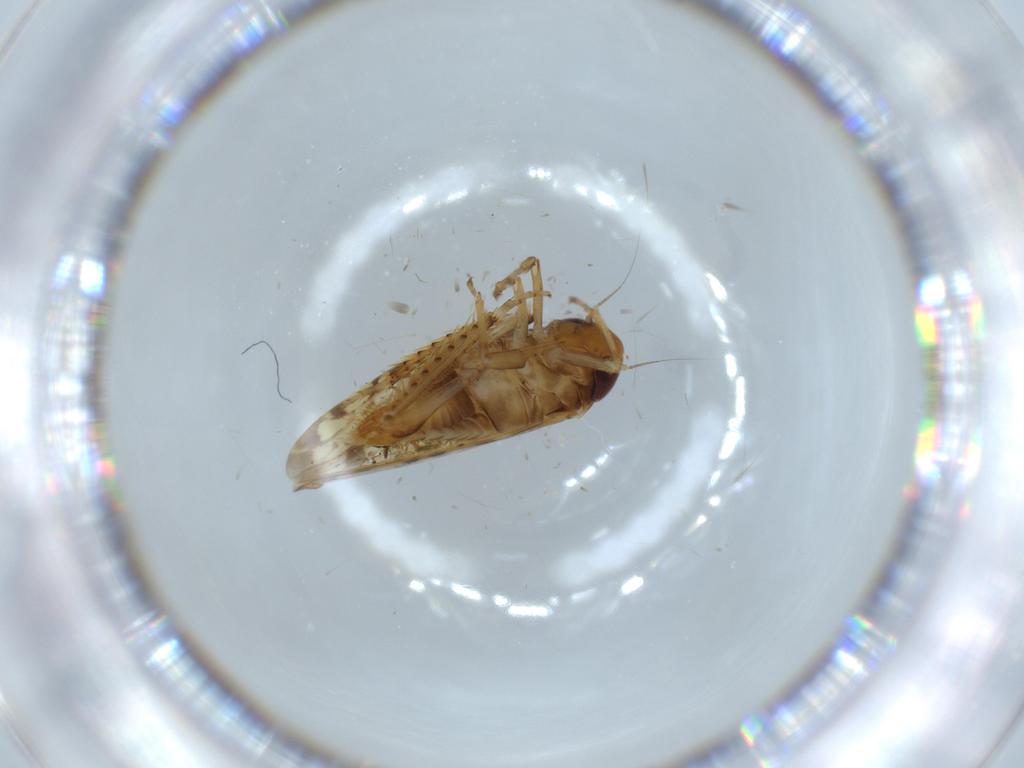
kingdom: Animalia
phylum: Arthropoda
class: Insecta
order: Hemiptera
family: Cicadellidae
